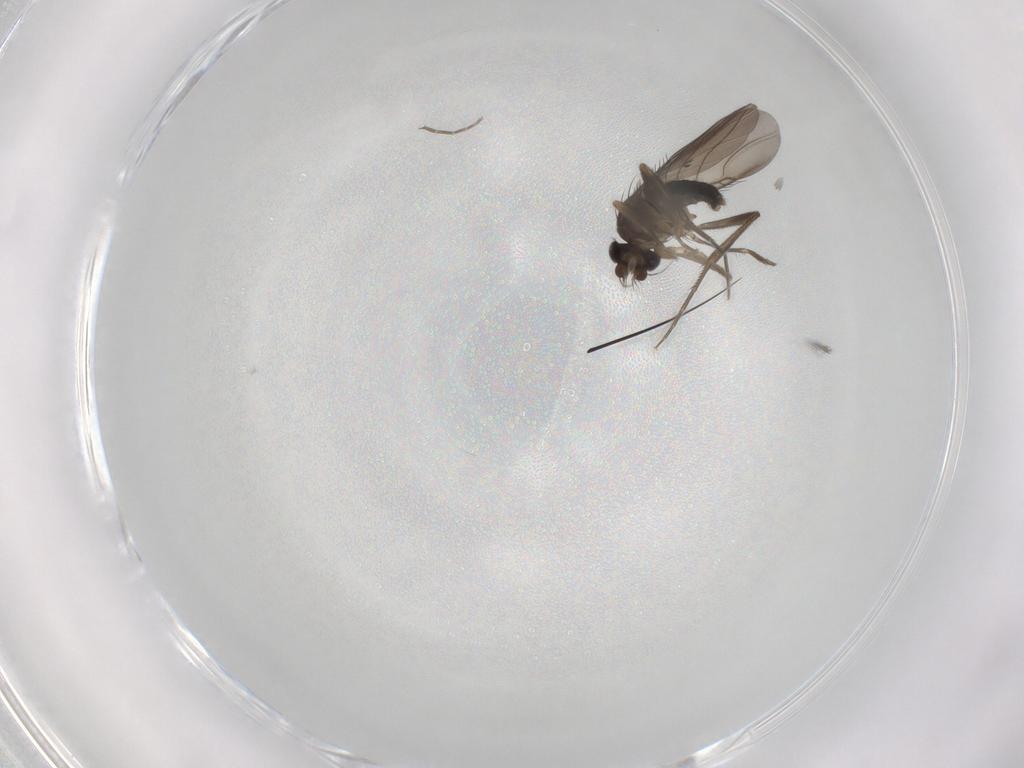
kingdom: Animalia
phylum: Arthropoda
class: Insecta
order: Diptera
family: Phoridae
